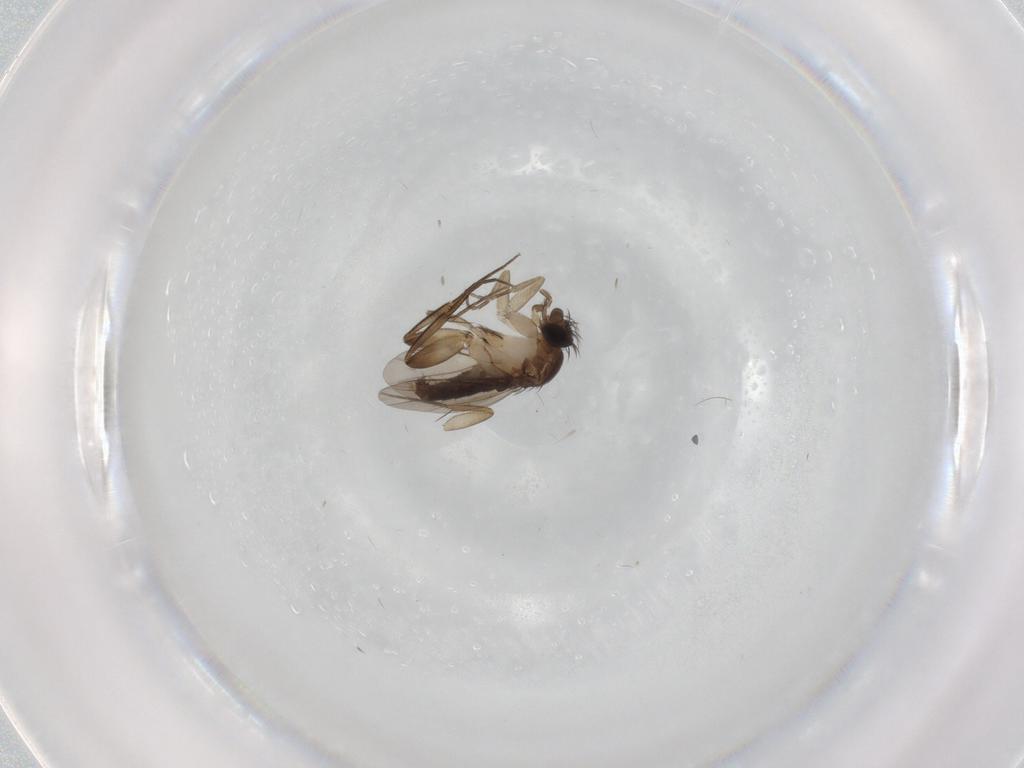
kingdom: Animalia
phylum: Arthropoda
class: Insecta
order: Diptera
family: Phoridae
